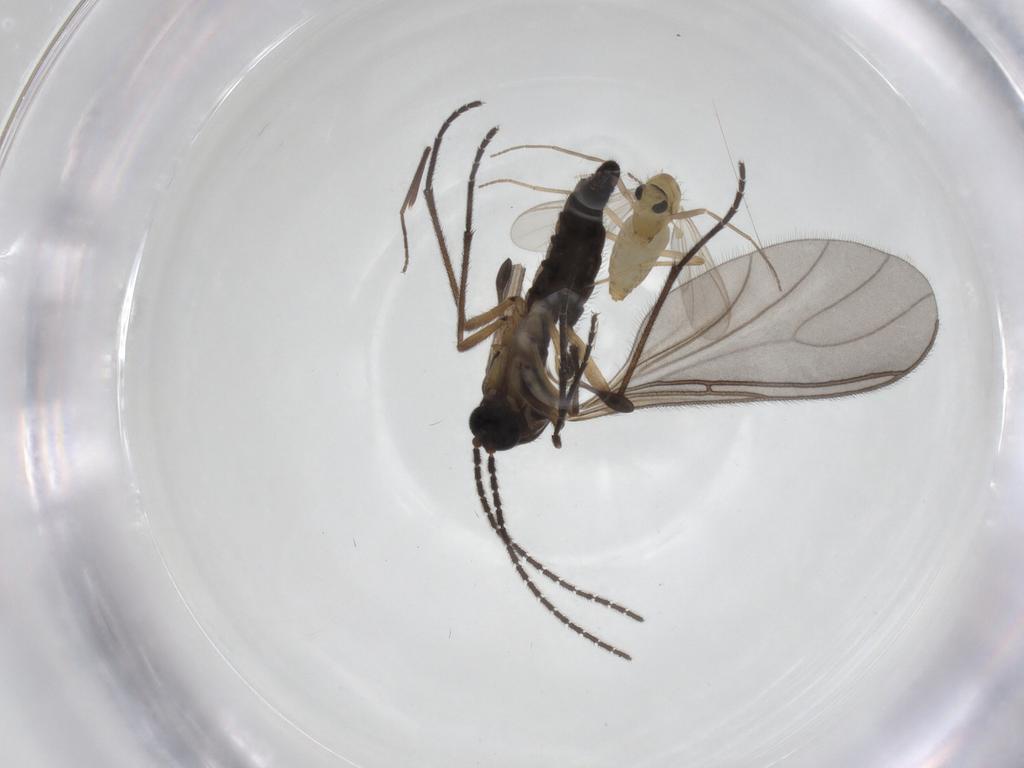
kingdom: Animalia
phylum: Arthropoda
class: Insecta
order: Diptera
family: Sciaridae
